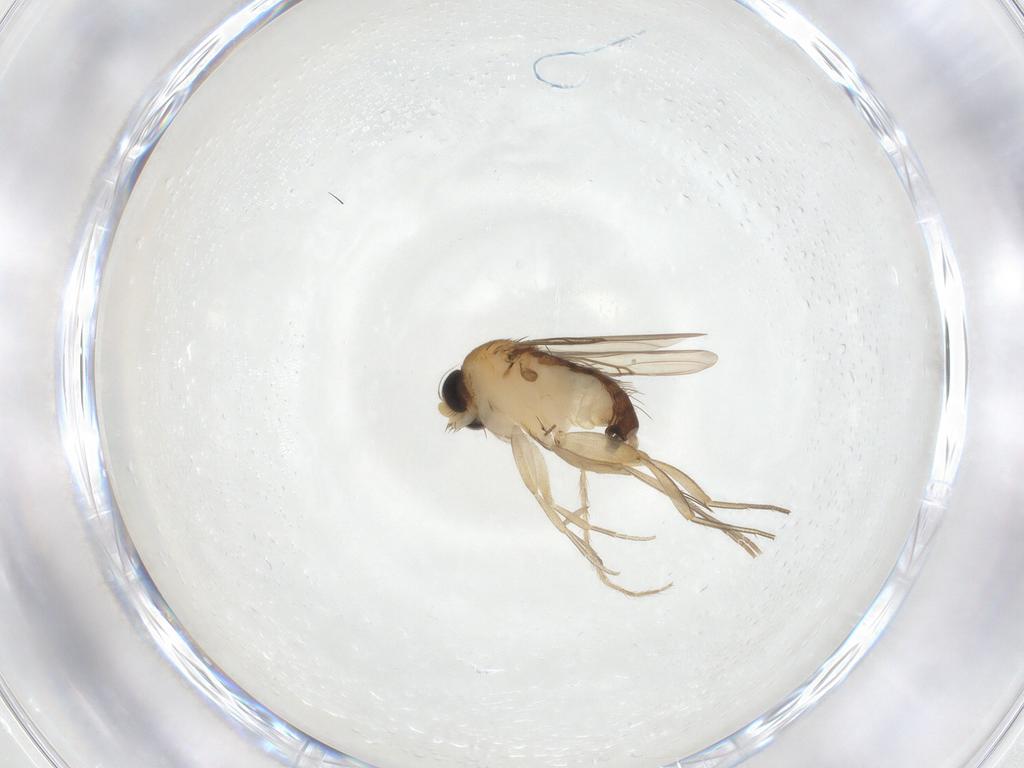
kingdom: Animalia
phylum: Arthropoda
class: Insecta
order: Diptera
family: Phoridae
